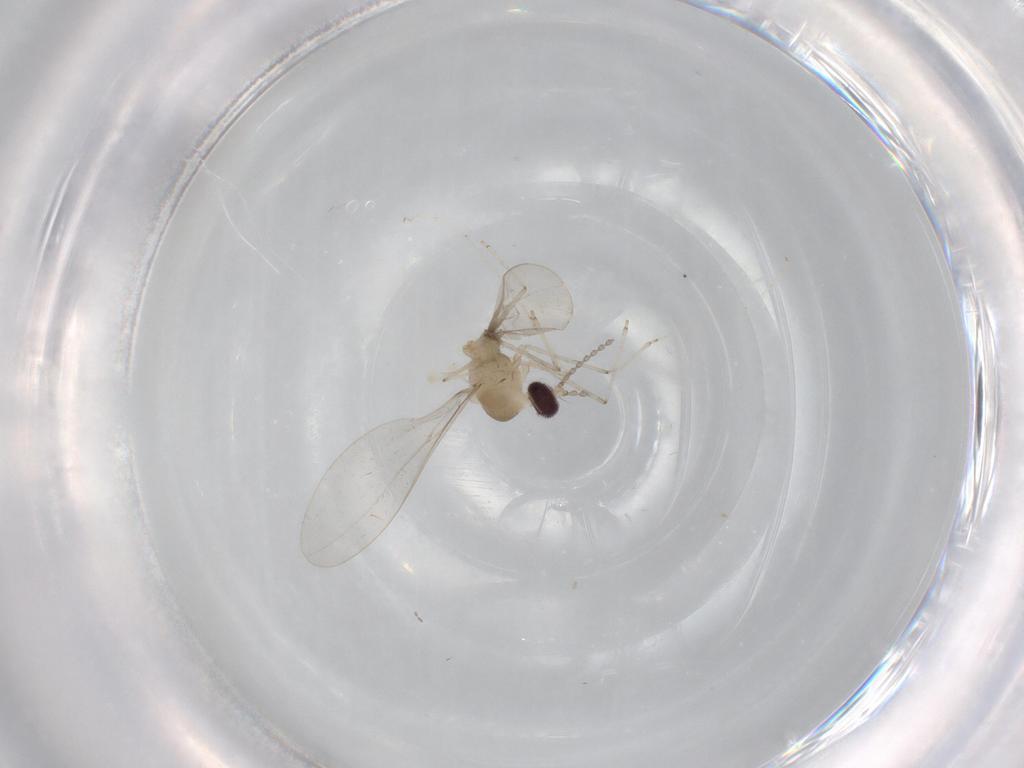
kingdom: Animalia
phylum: Arthropoda
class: Insecta
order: Diptera
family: Cecidomyiidae
